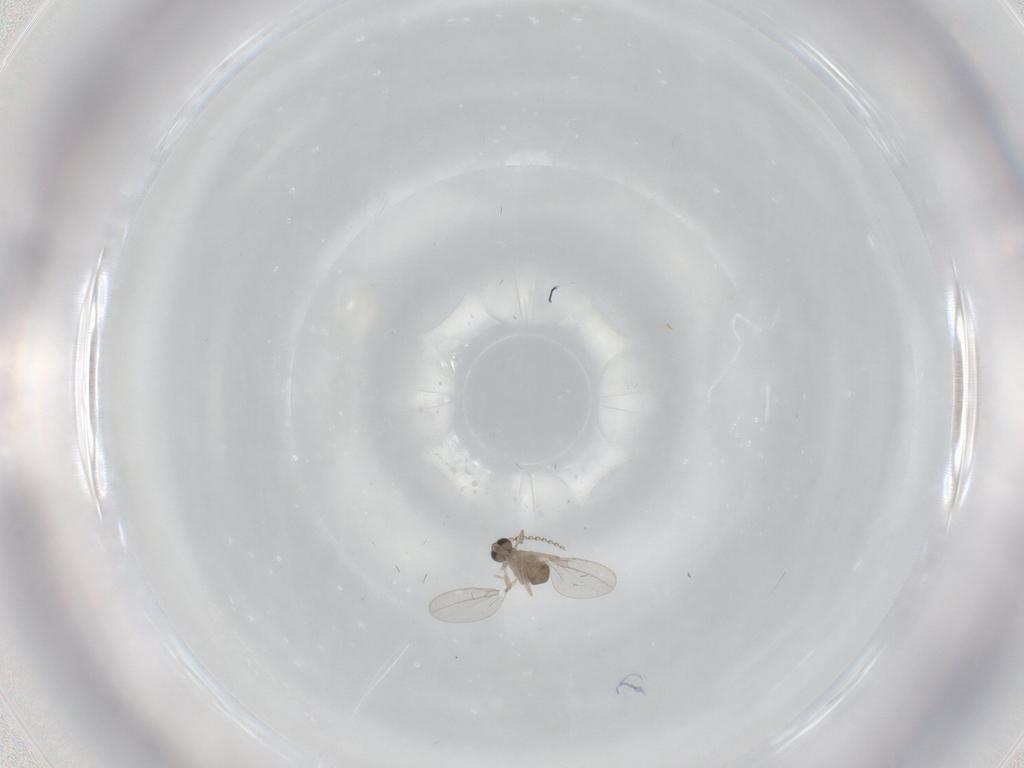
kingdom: Animalia
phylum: Arthropoda
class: Insecta
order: Diptera
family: Cecidomyiidae
